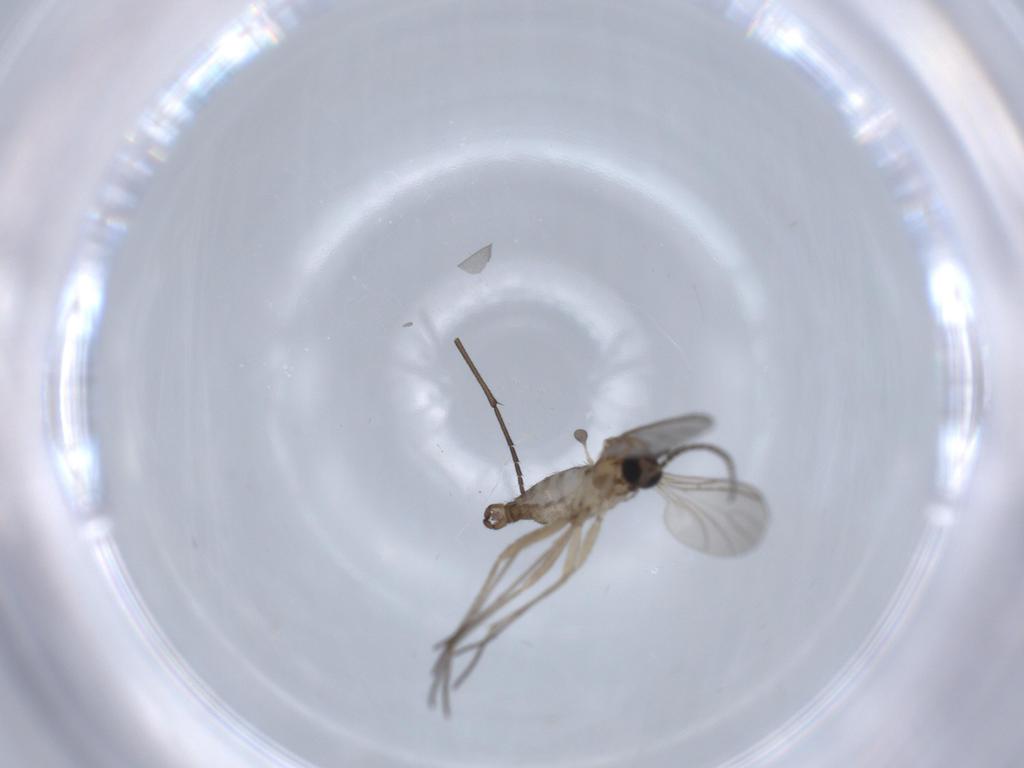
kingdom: Animalia
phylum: Arthropoda
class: Insecta
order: Diptera
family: Sciaridae
